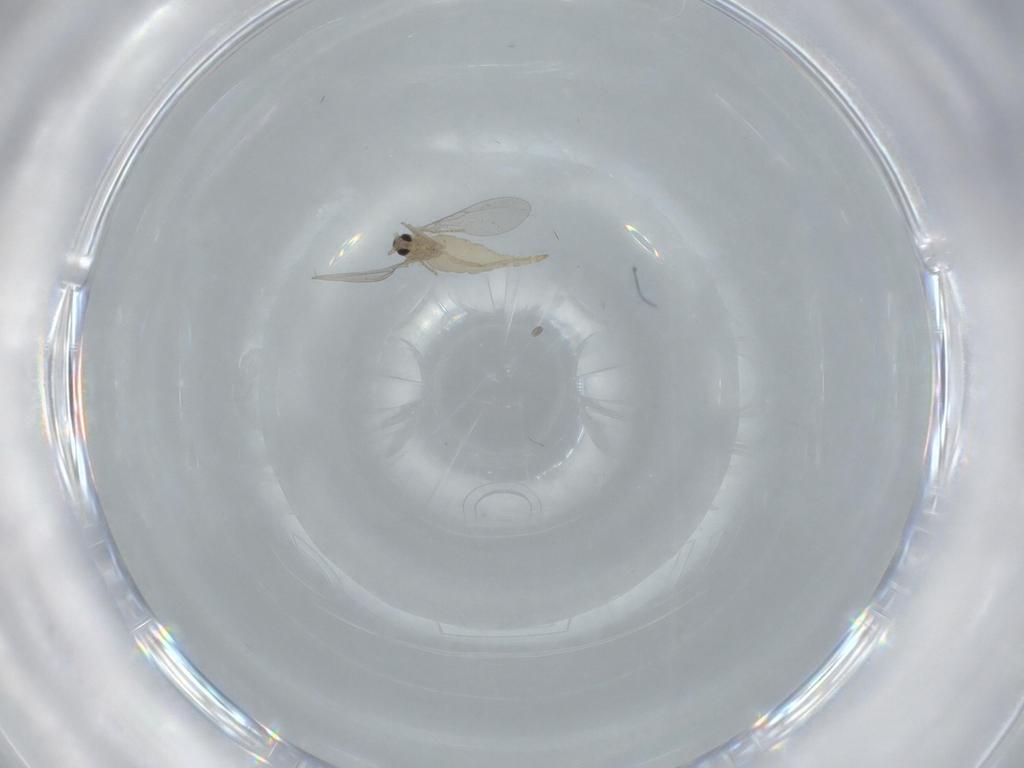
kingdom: Animalia
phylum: Arthropoda
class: Insecta
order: Diptera
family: Cecidomyiidae
